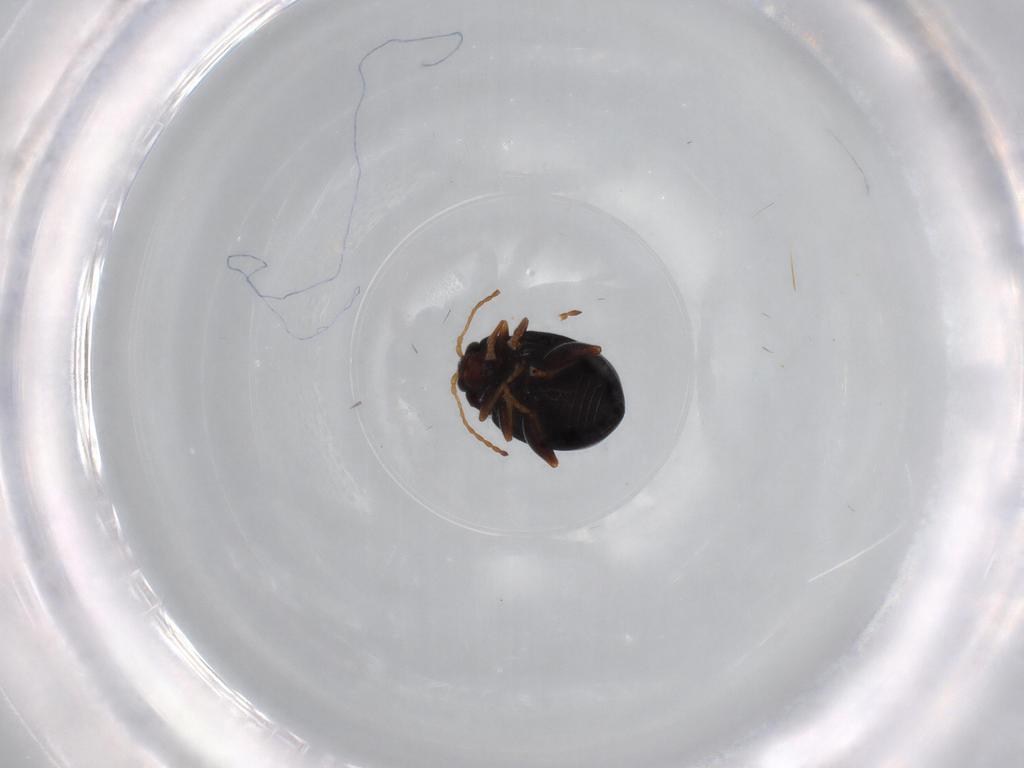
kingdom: Animalia
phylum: Arthropoda
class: Insecta
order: Coleoptera
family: Chrysomelidae
